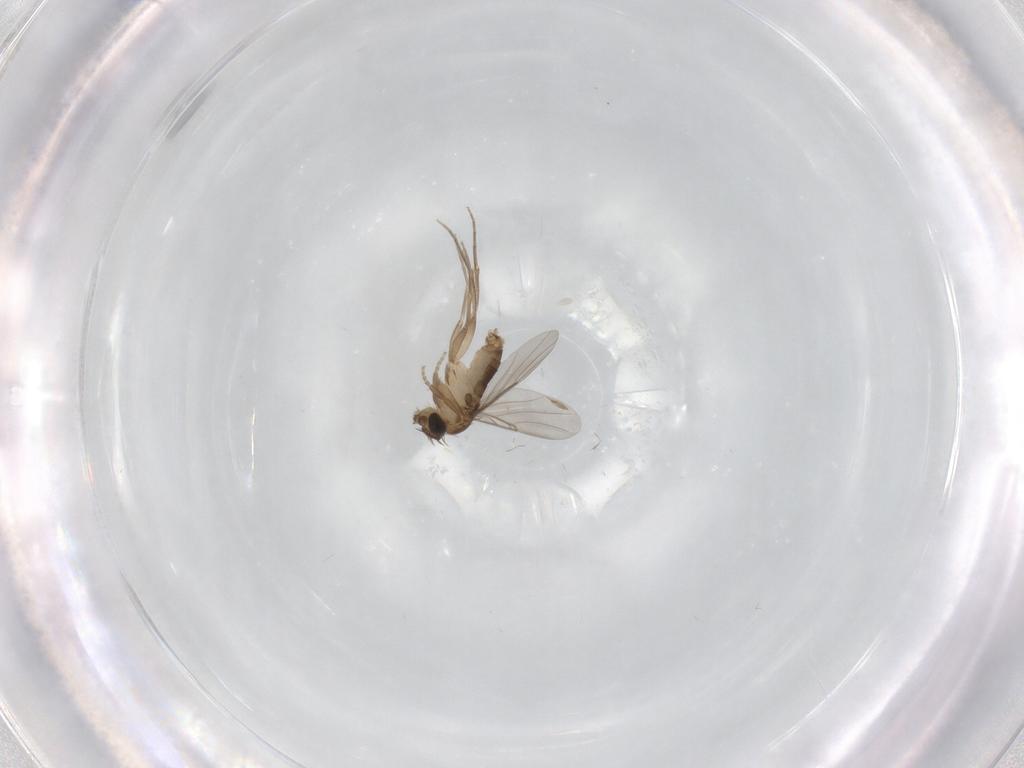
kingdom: Animalia
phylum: Arthropoda
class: Insecta
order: Diptera
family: Phoridae
